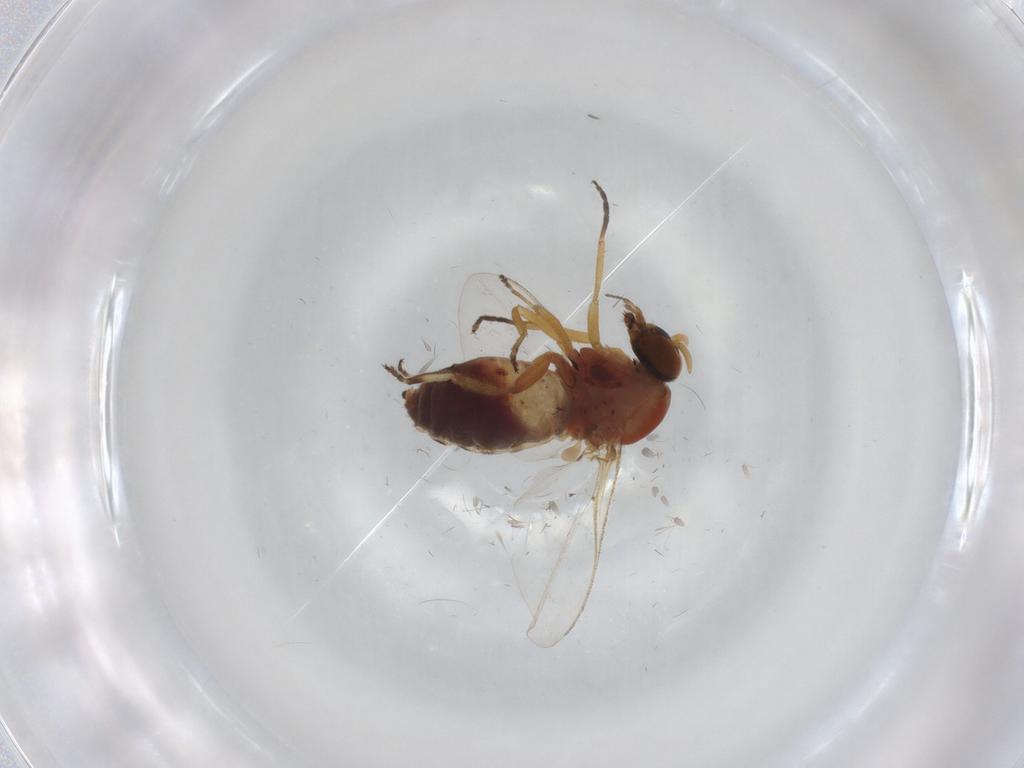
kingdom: Animalia
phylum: Arthropoda
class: Insecta
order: Diptera
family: Simuliidae
